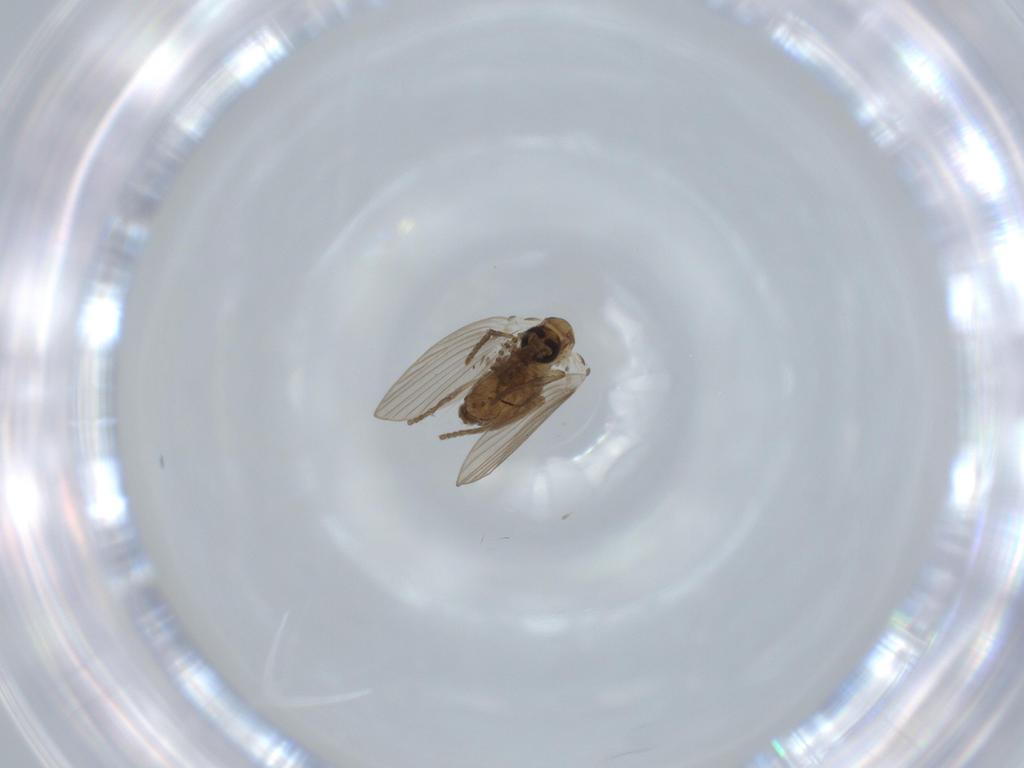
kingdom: Animalia
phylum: Arthropoda
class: Insecta
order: Diptera
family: Psychodidae
